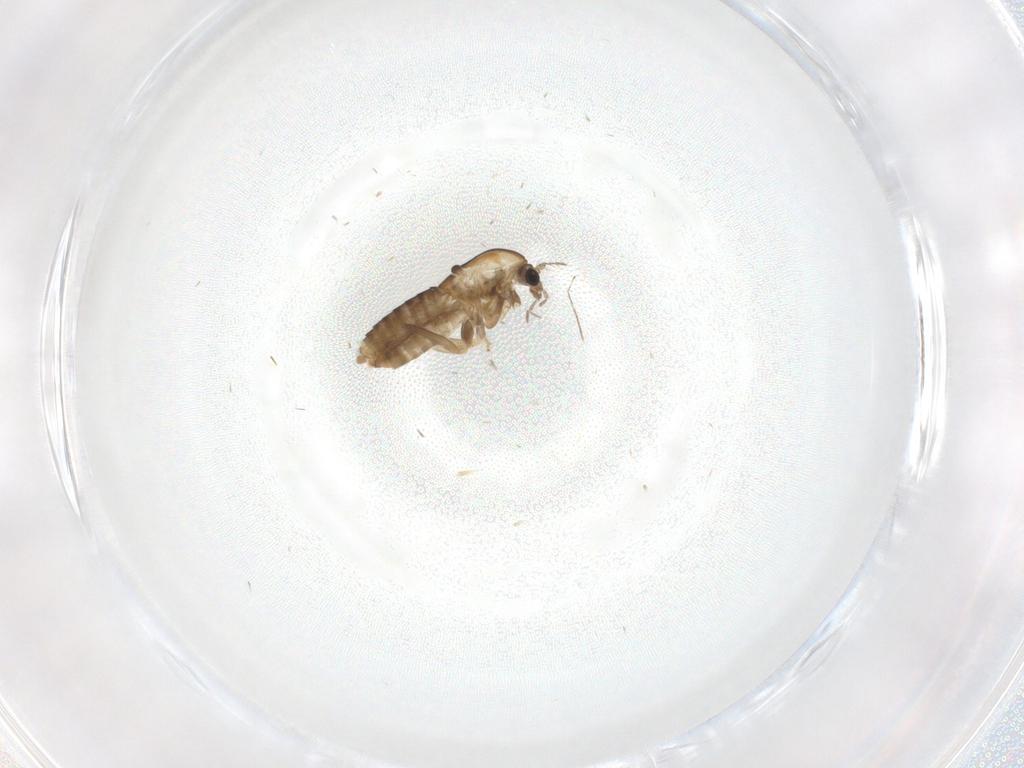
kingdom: Animalia
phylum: Arthropoda
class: Insecta
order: Diptera
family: Chironomidae
